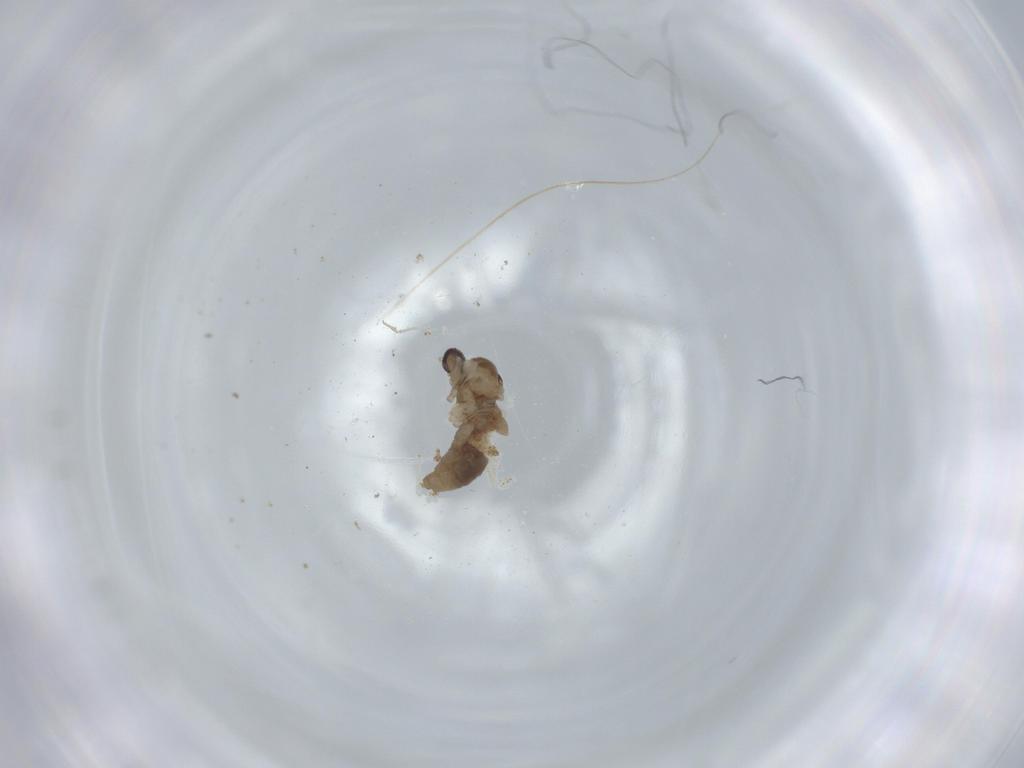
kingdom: Animalia
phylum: Arthropoda
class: Insecta
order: Diptera
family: Cecidomyiidae
